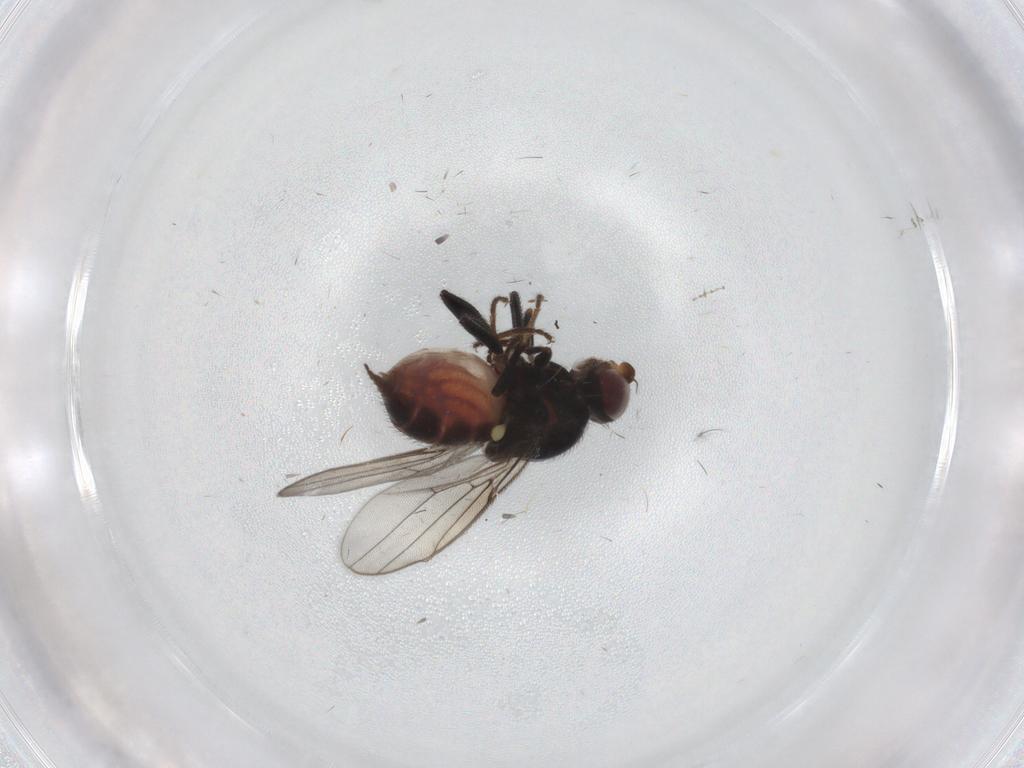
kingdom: Animalia
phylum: Arthropoda
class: Insecta
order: Diptera
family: Chloropidae
